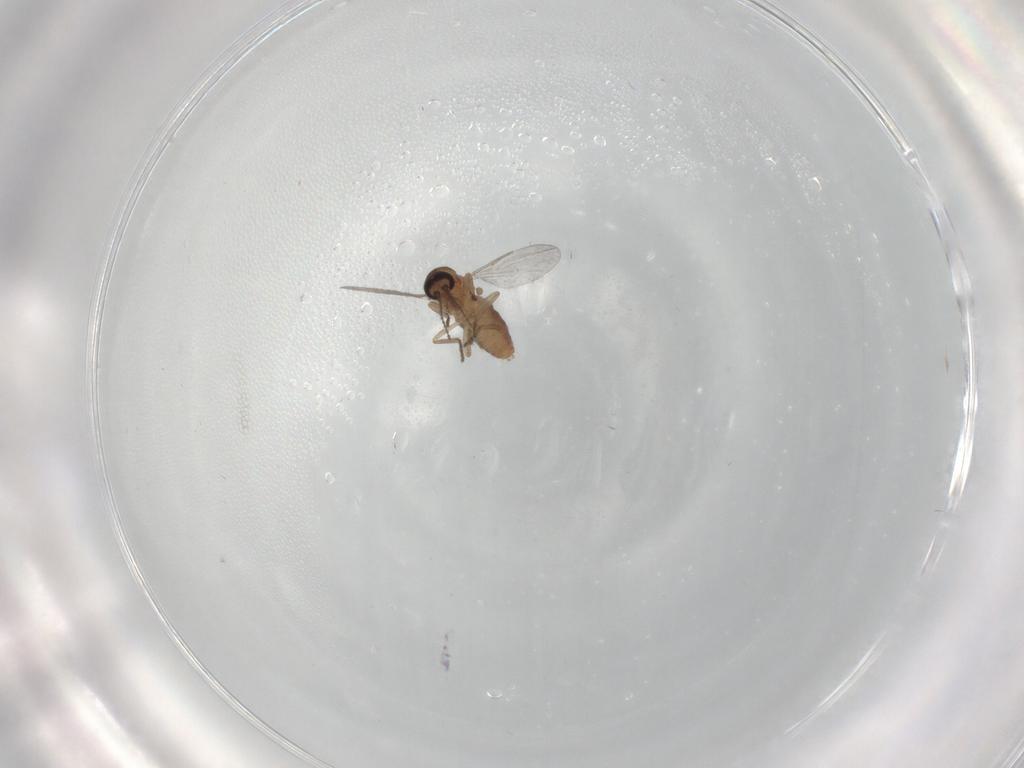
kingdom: Animalia
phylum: Arthropoda
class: Insecta
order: Diptera
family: Ceratopogonidae
